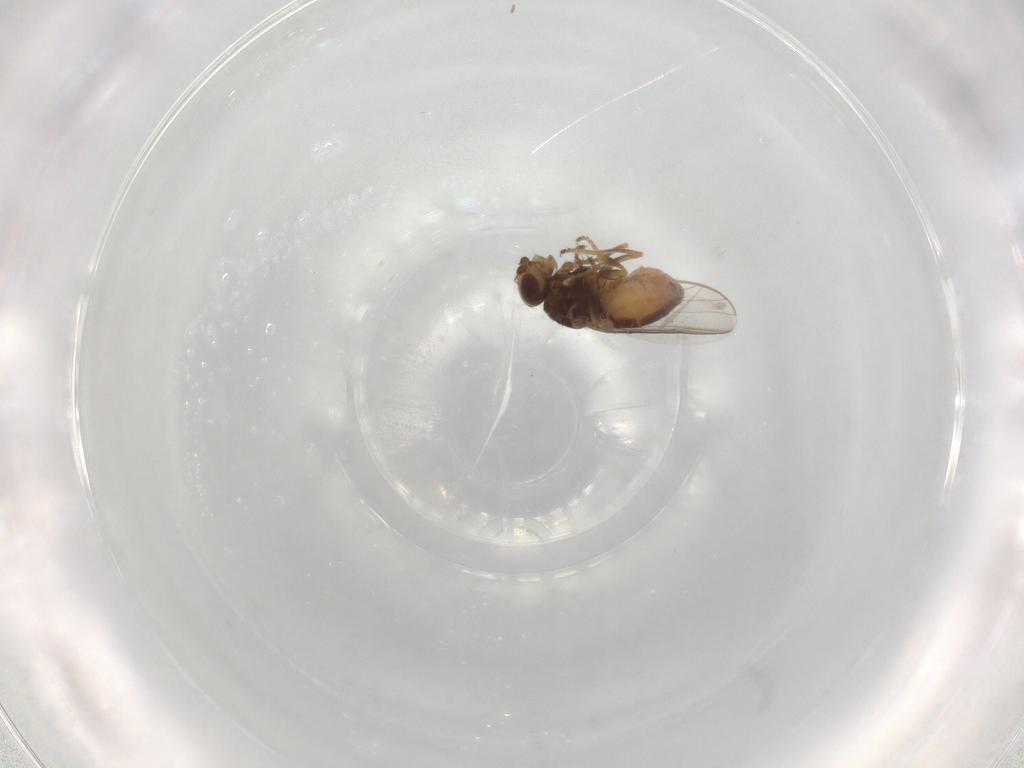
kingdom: Animalia
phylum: Arthropoda
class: Insecta
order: Diptera
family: Chloropidae
